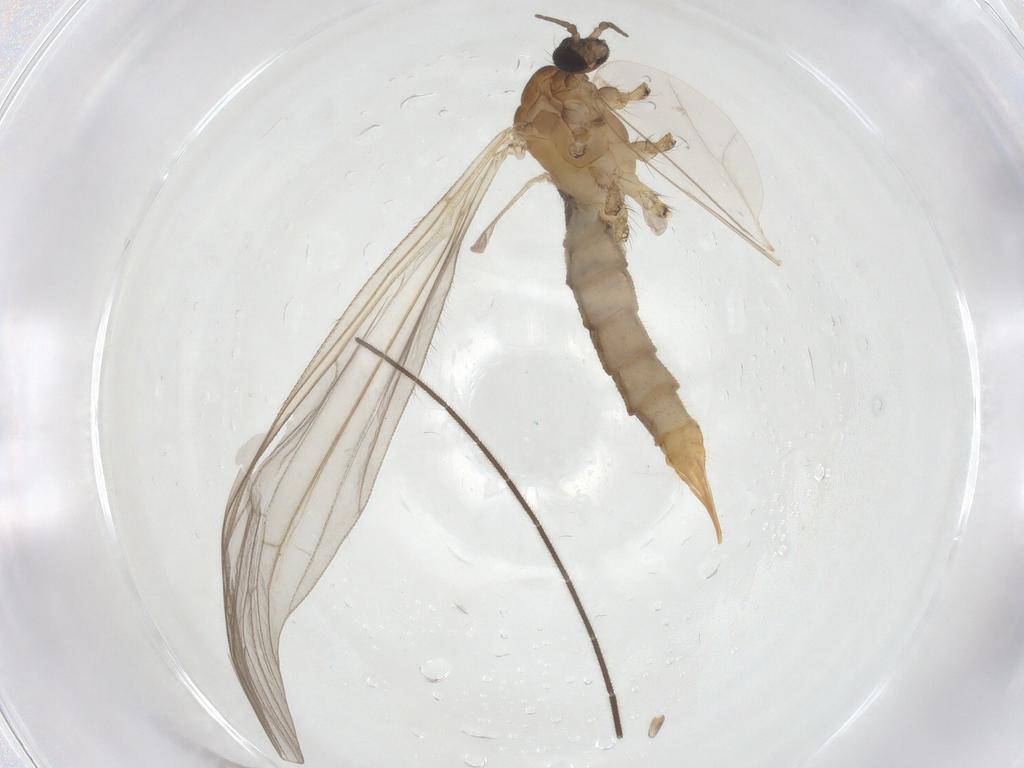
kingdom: Animalia
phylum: Arthropoda
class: Insecta
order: Diptera
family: Limoniidae
